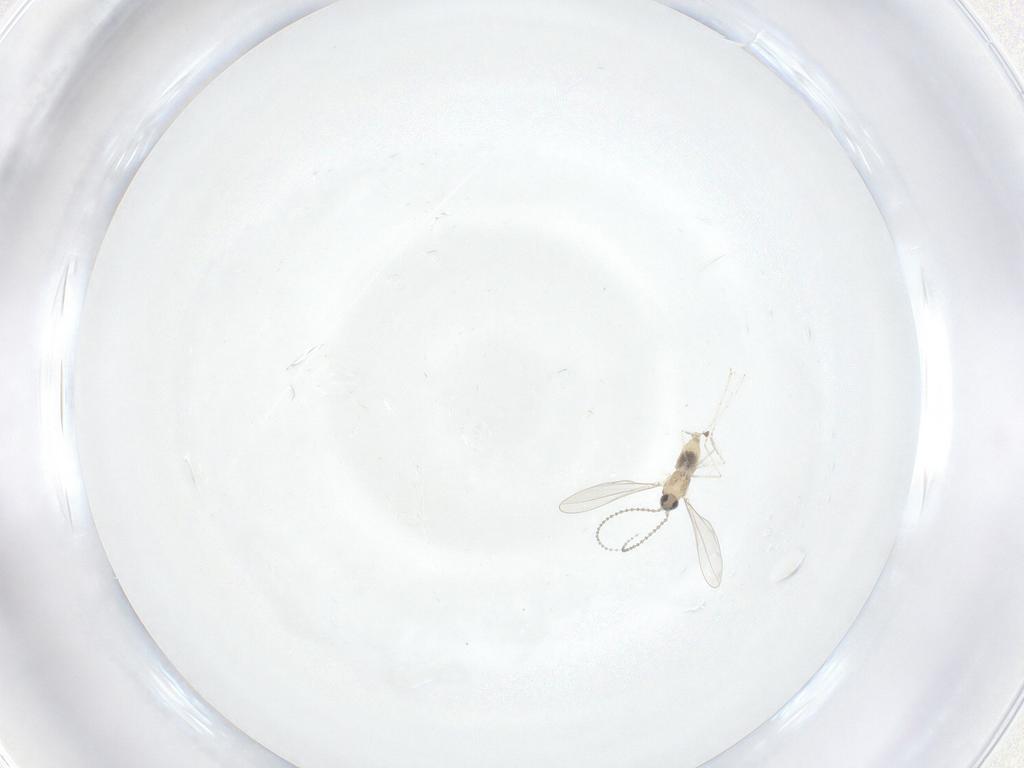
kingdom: Animalia
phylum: Arthropoda
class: Insecta
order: Diptera
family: Cecidomyiidae
